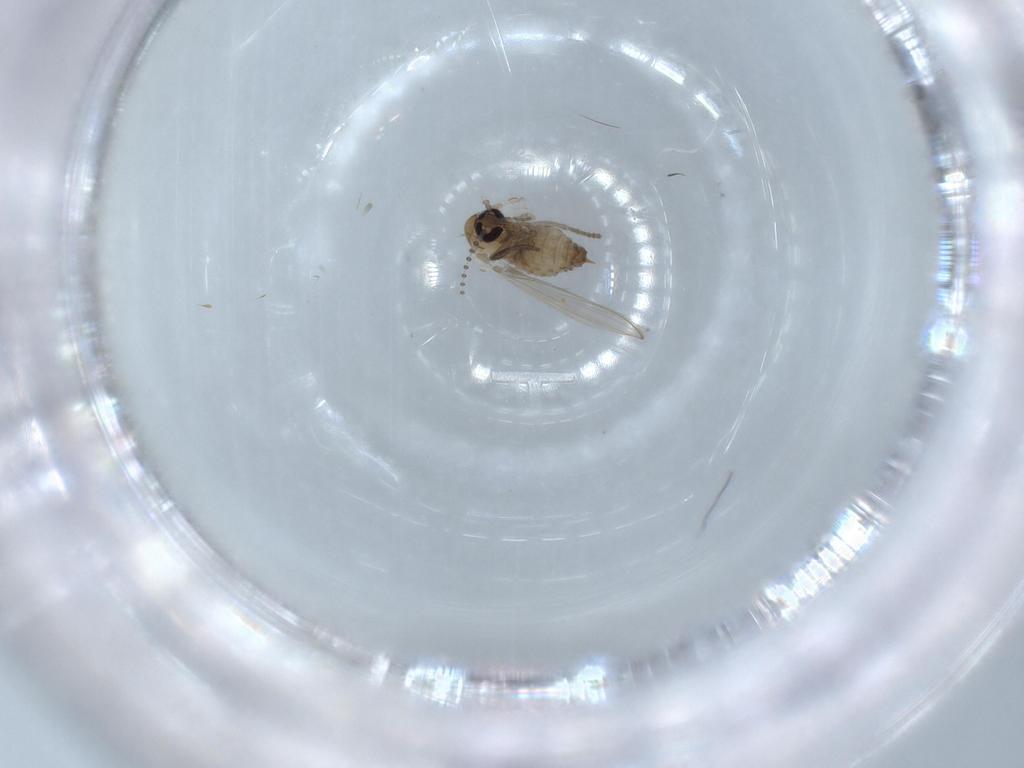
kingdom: Animalia
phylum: Arthropoda
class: Insecta
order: Diptera
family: Psychodidae
